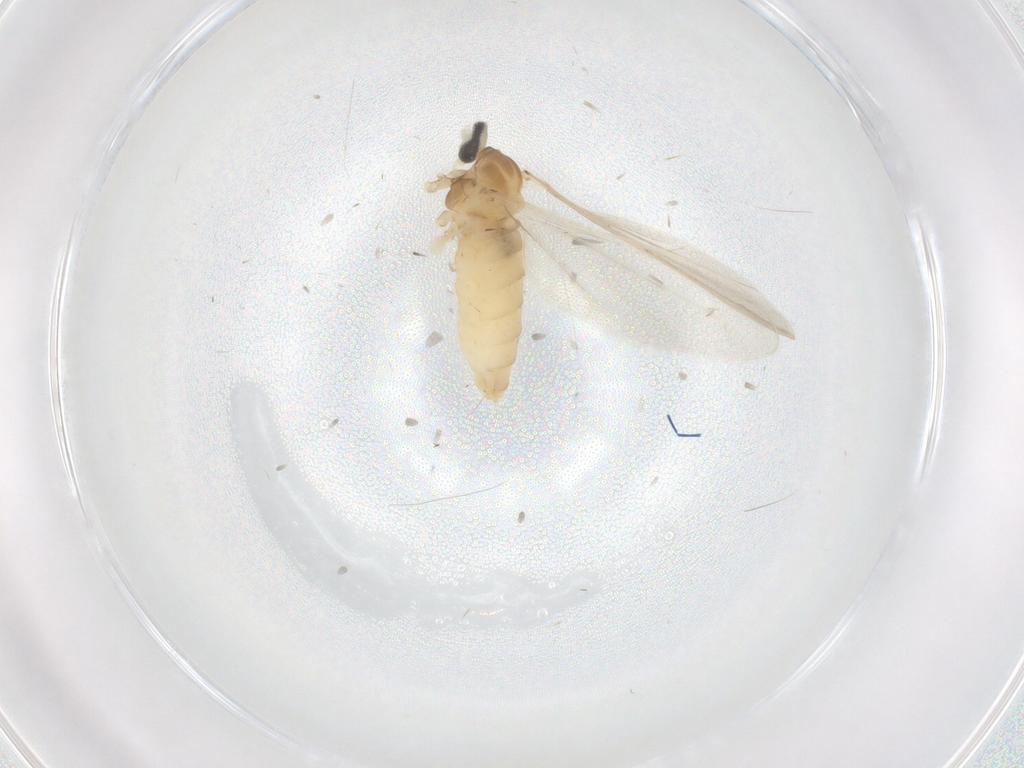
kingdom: Animalia
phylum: Arthropoda
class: Insecta
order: Diptera
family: Cecidomyiidae
